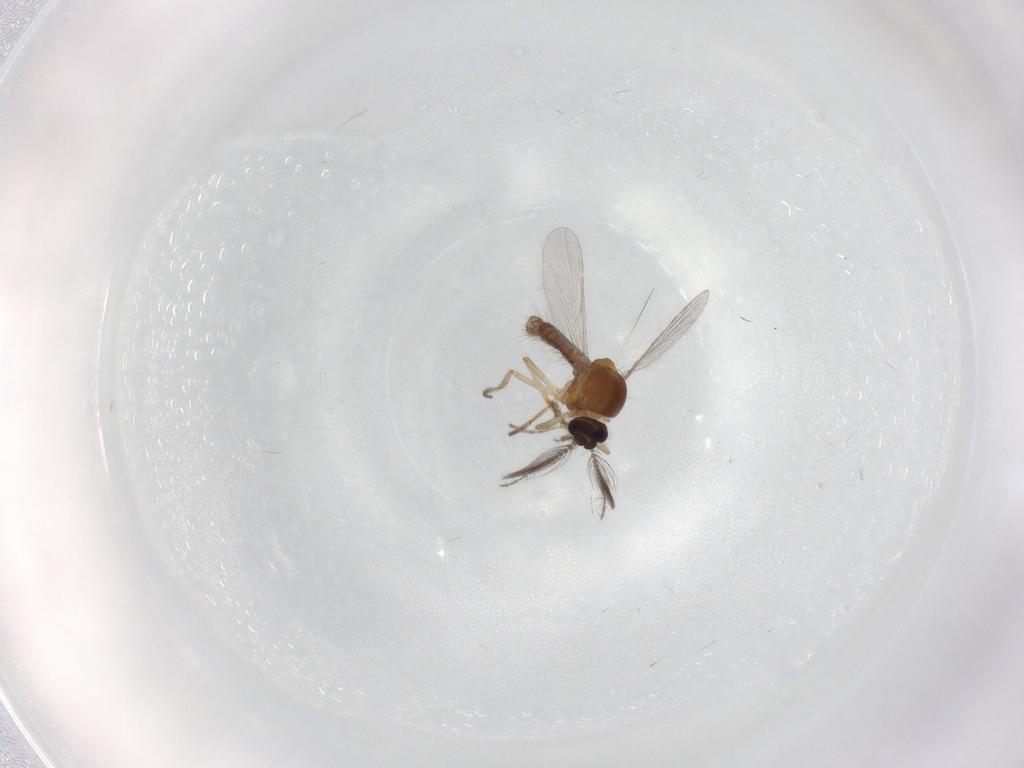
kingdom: Animalia
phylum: Arthropoda
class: Insecta
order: Diptera
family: Ceratopogonidae
